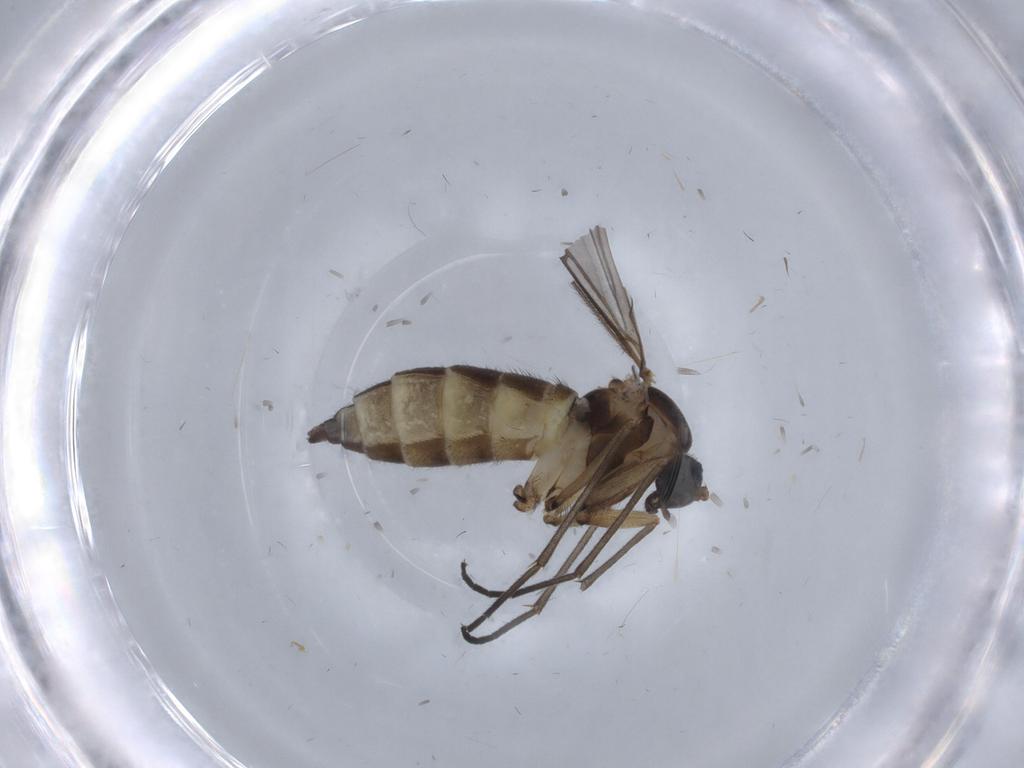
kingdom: Animalia
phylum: Arthropoda
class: Insecta
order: Diptera
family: Sciaridae
